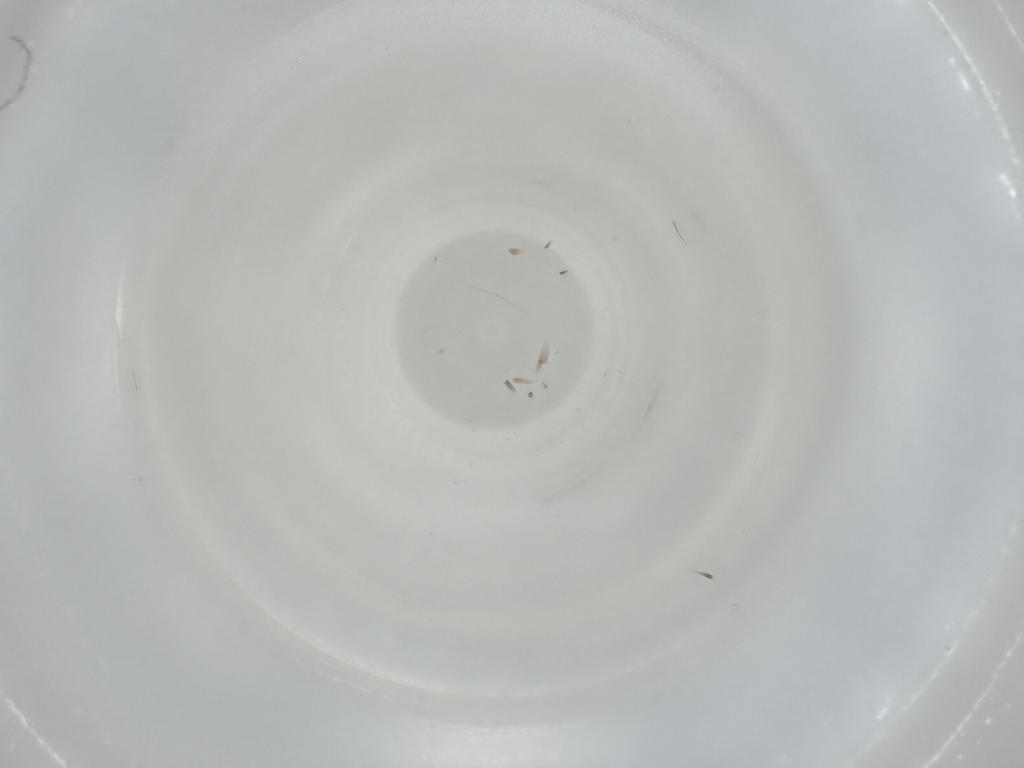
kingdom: Animalia
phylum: Arthropoda
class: Insecta
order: Diptera
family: Cecidomyiidae
